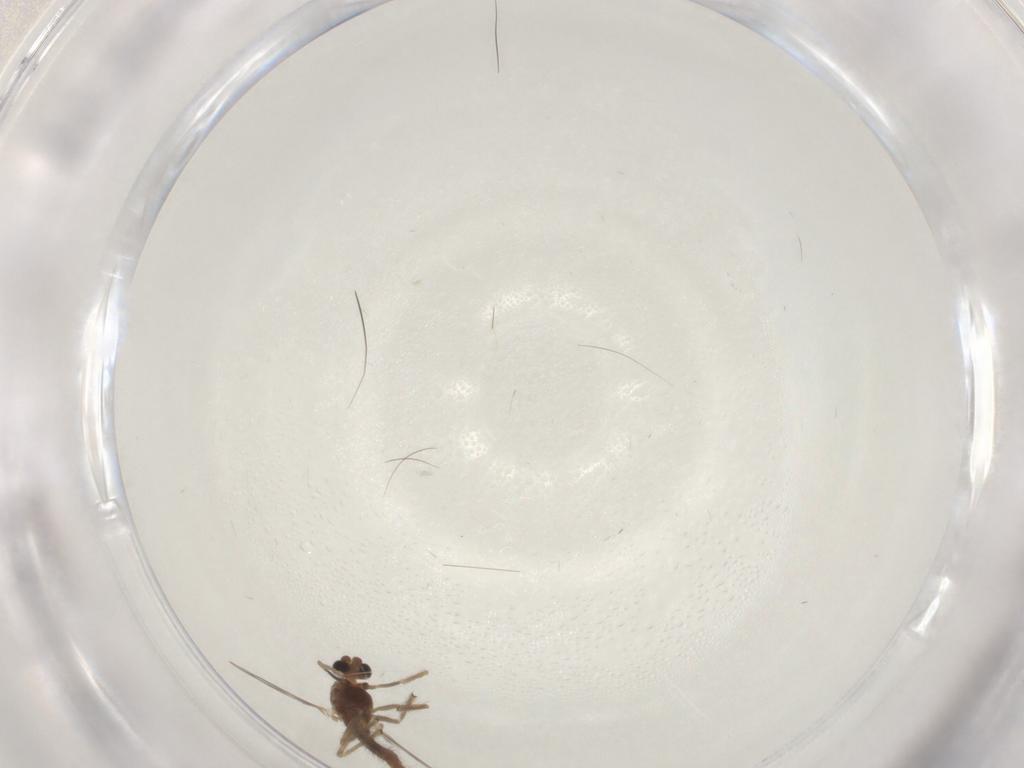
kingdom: Animalia
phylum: Arthropoda
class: Insecta
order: Diptera
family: Chironomidae
